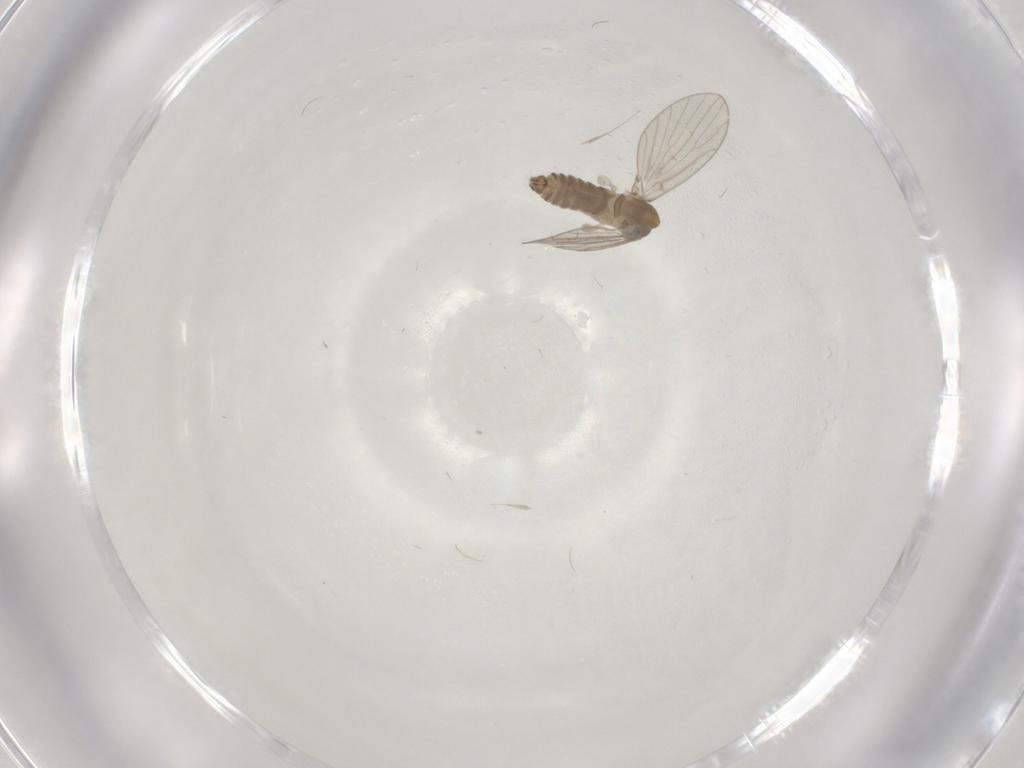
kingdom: Animalia
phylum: Arthropoda
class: Insecta
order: Diptera
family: Psychodidae
